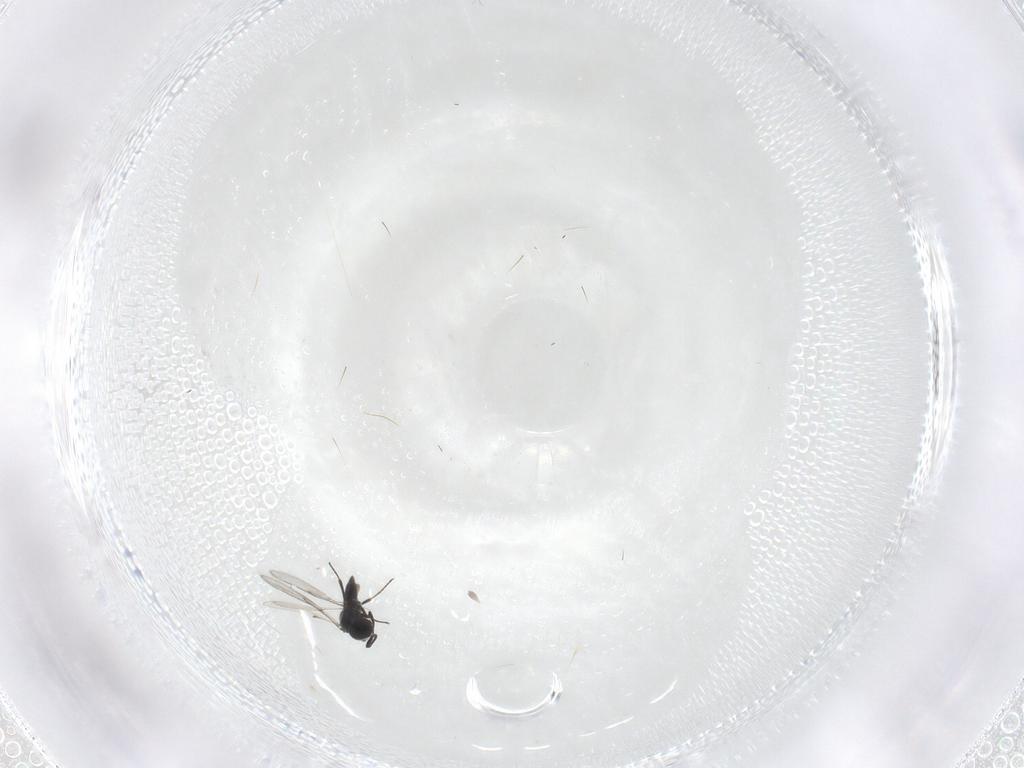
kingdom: Animalia
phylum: Arthropoda
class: Insecta
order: Hymenoptera
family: Scelionidae
